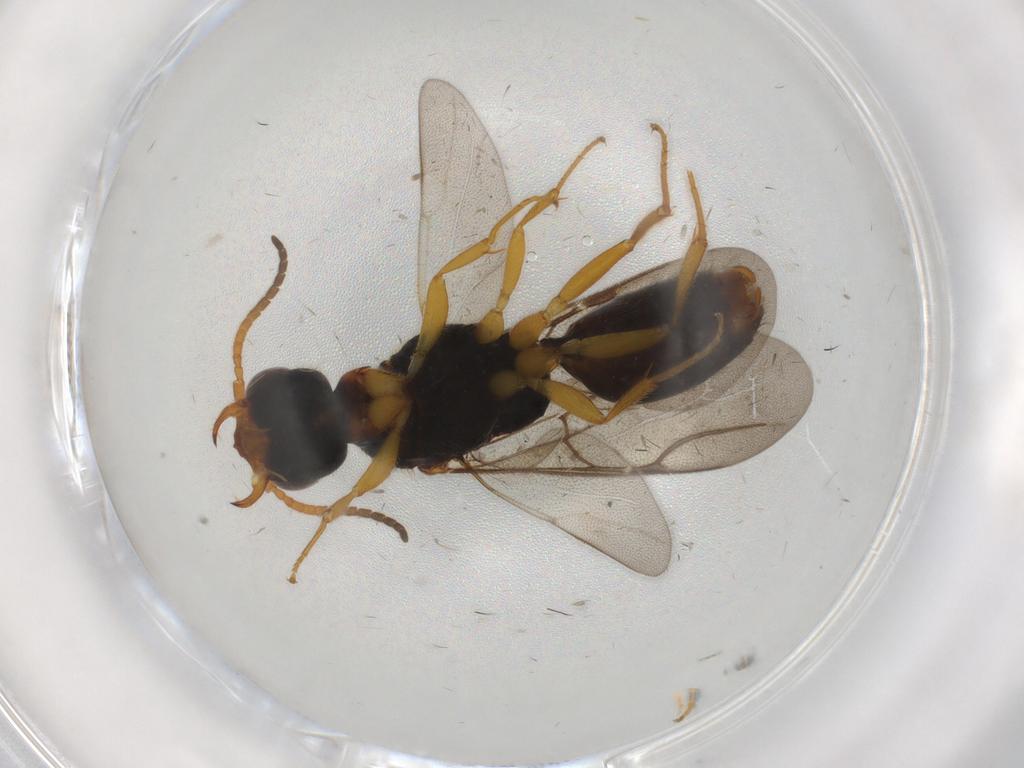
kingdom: Animalia
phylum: Arthropoda
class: Insecta
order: Hymenoptera
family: Bethylidae
